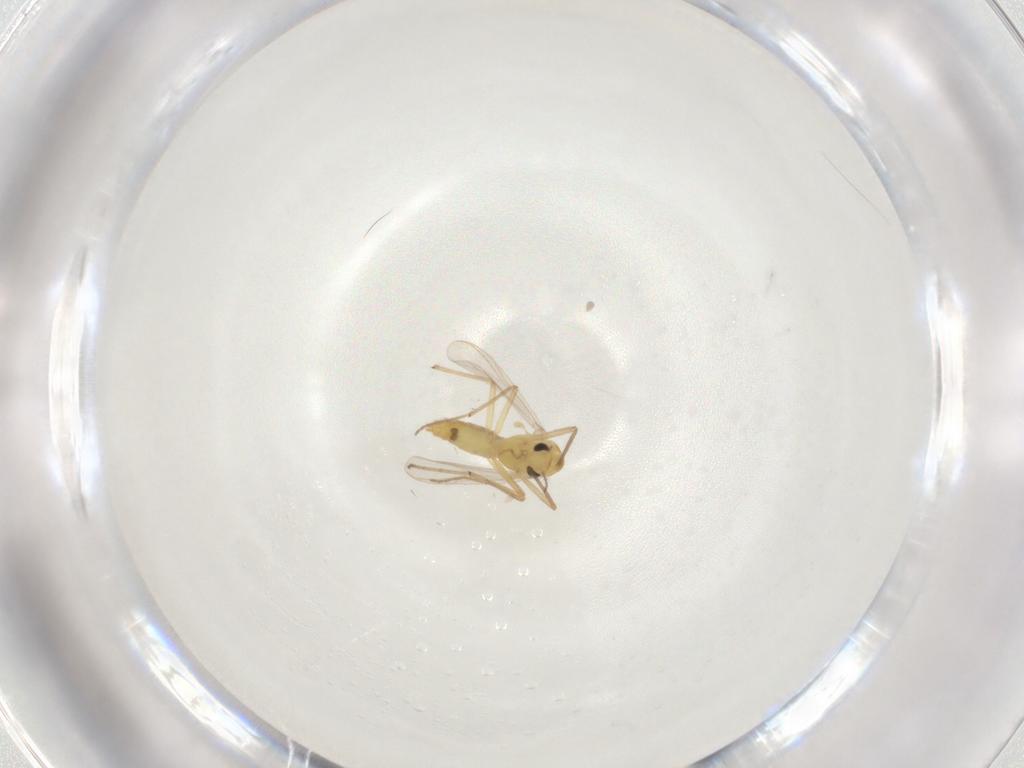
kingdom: Animalia
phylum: Arthropoda
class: Insecta
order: Diptera
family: Chironomidae
